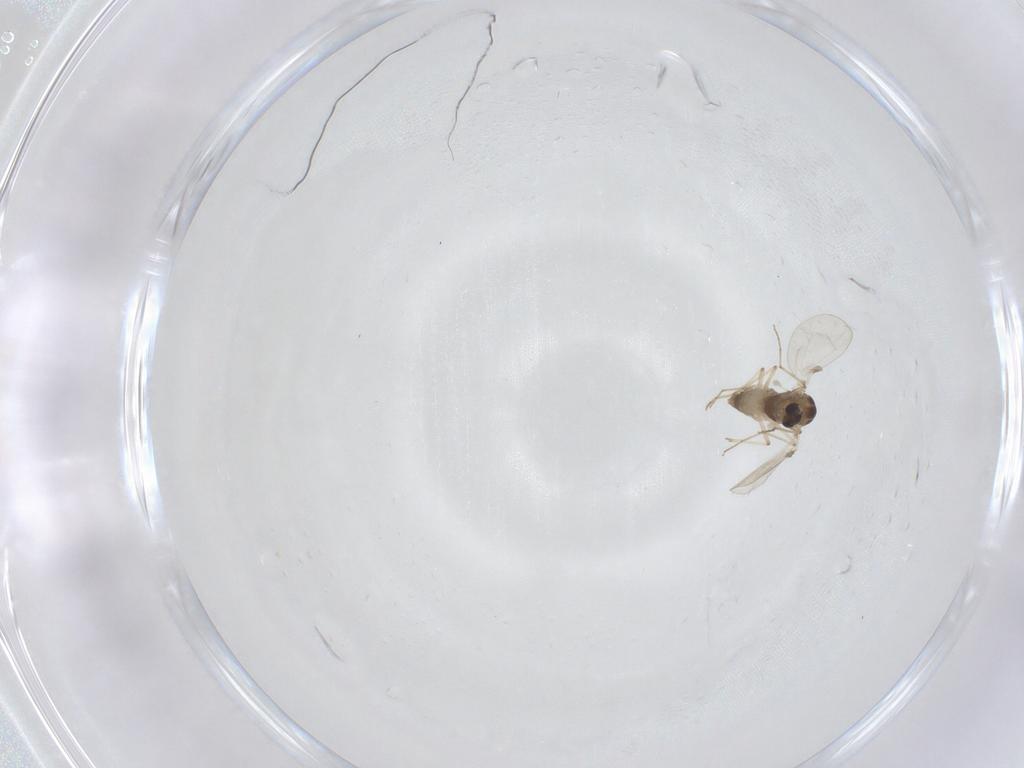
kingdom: Animalia
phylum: Arthropoda
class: Insecta
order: Diptera
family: Chironomidae
